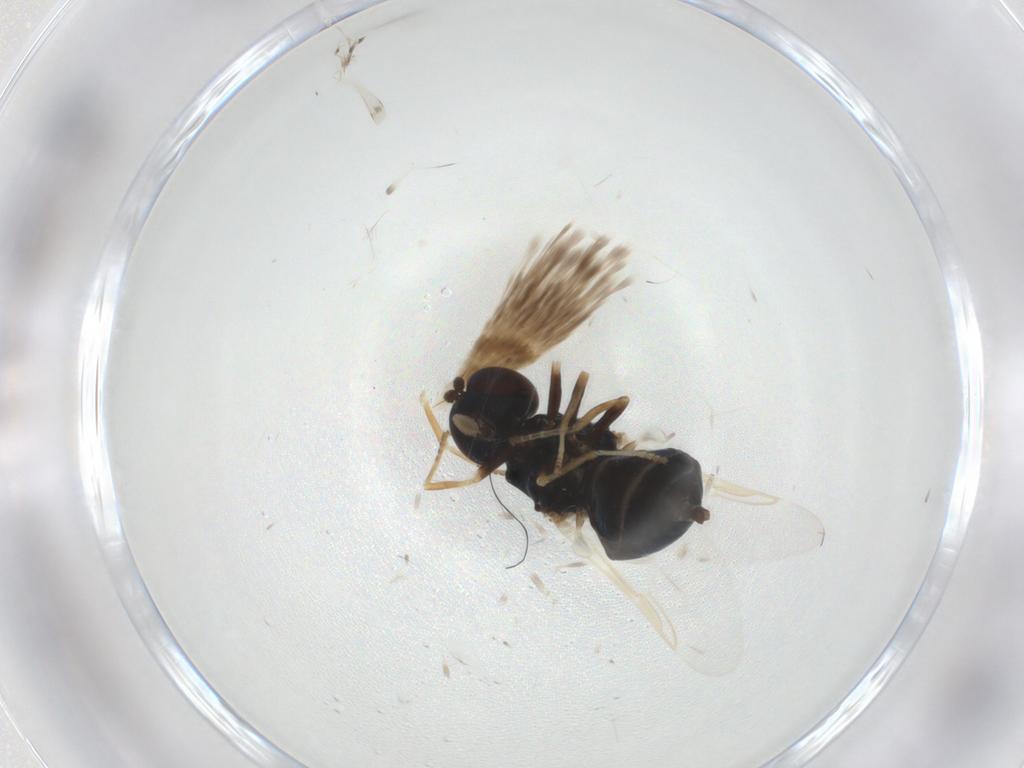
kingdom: Animalia
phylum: Arthropoda
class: Insecta
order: Diptera
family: Stratiomyidae
